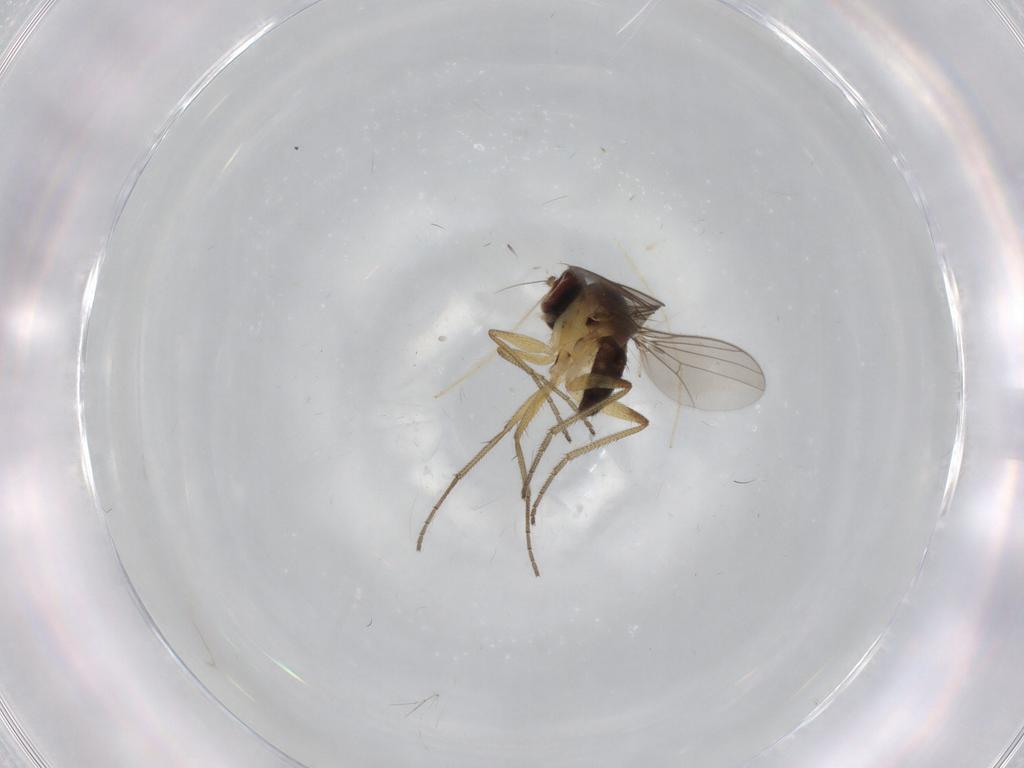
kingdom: Animalia
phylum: Arthropoda
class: Insecta
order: Diptera
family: Dolichopodidae
